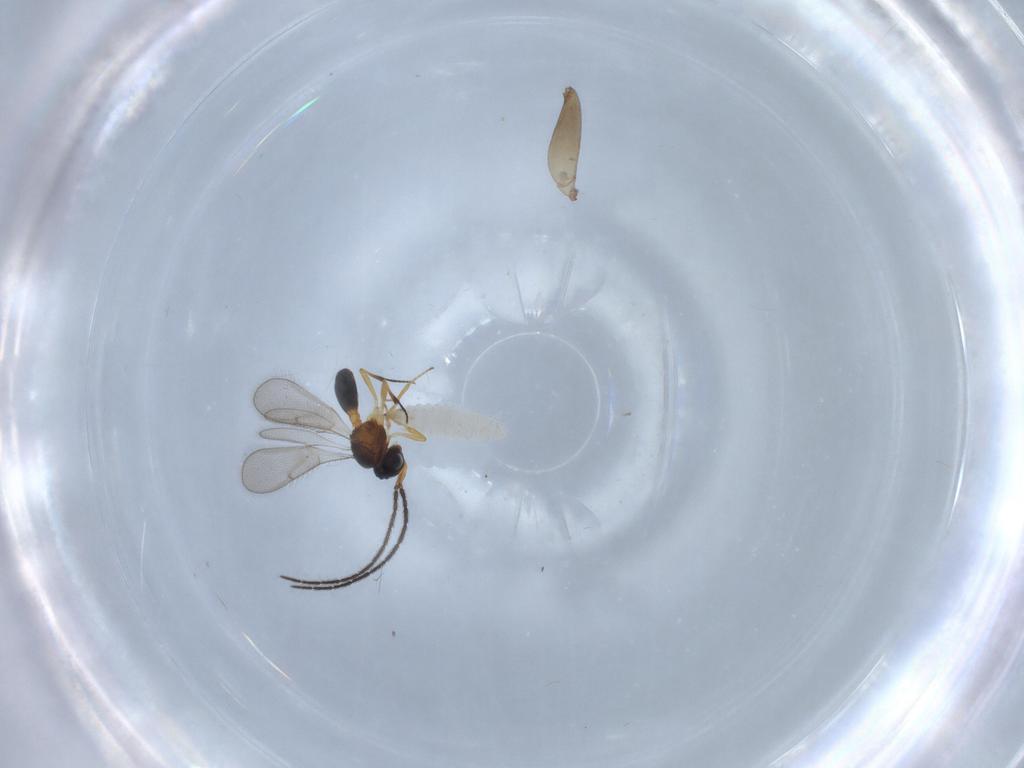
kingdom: Animalia
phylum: Arthropoda
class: Insecta
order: Hymenoptera
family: Scelionidae
